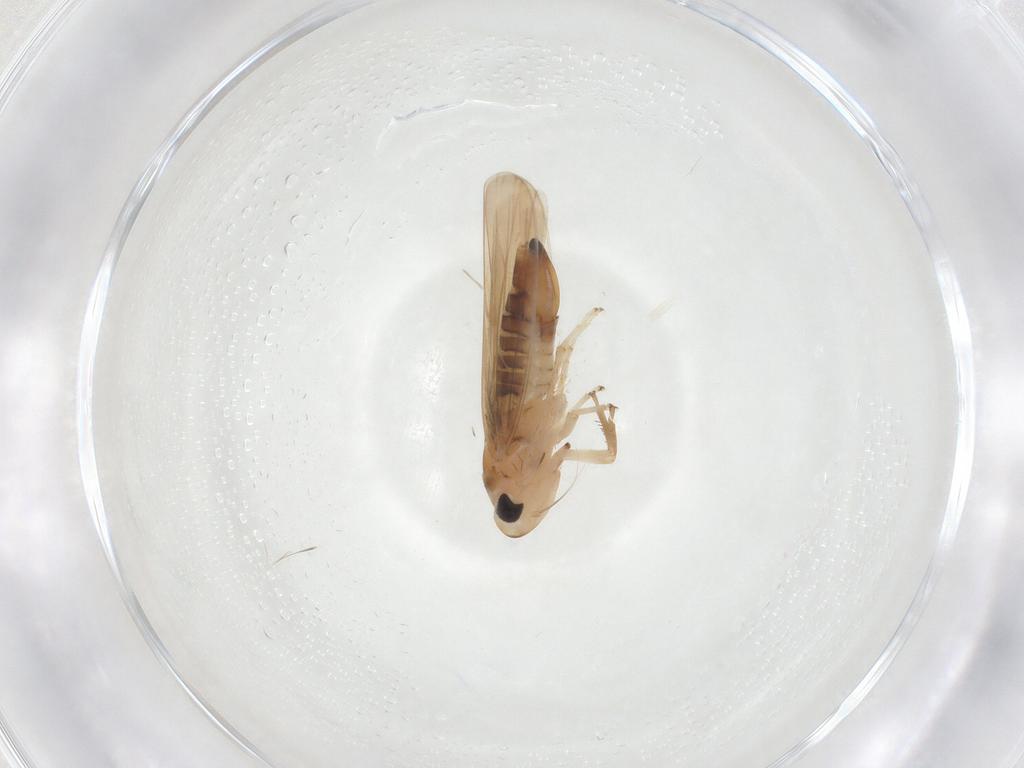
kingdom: Animalia
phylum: Arthropoda
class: Insecta
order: Hemiptera
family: Cicadellidae
